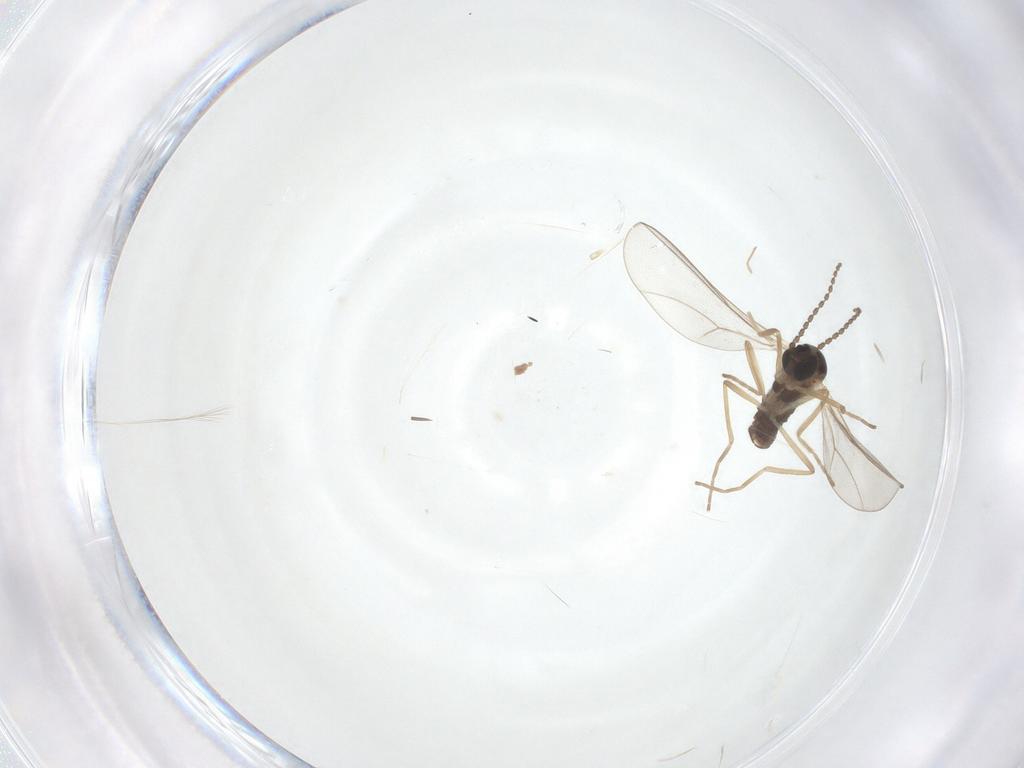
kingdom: Animalia
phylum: Arthropoda
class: Insecta
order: Diptera
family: Cecidomyiidae
